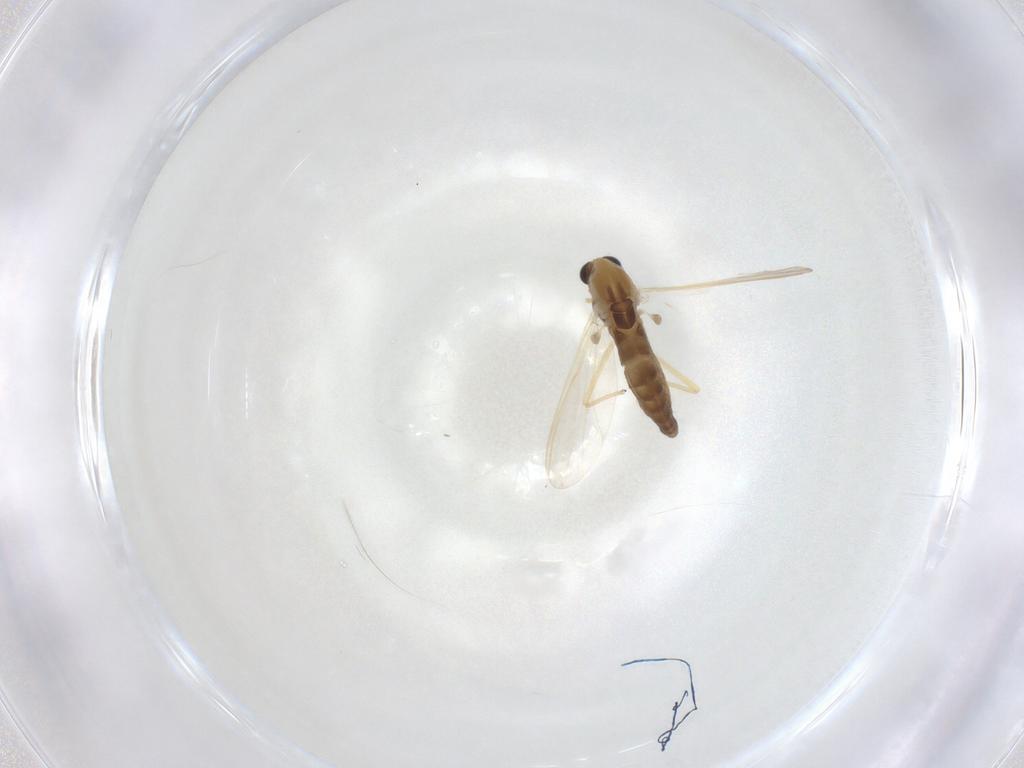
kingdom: Animalia
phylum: Arthropoda
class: Insecta
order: Diptera
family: Chironomidae
